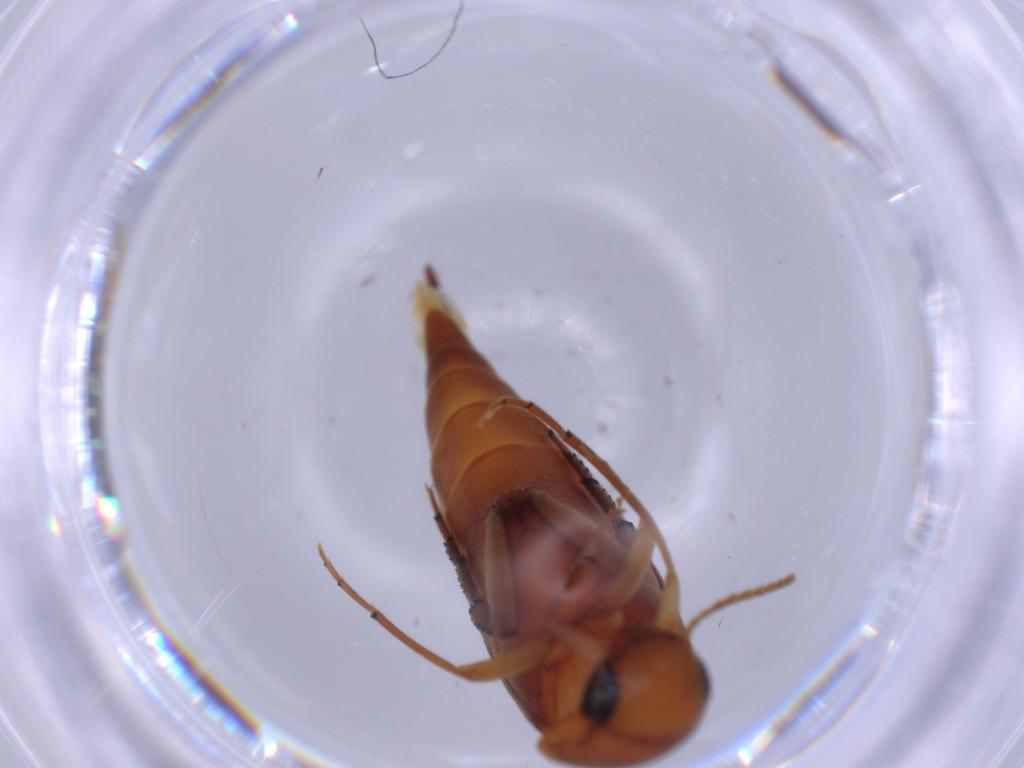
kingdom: Animalia
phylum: Arthropoda
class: Insecta
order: Coleoptera
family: Mordellidae
